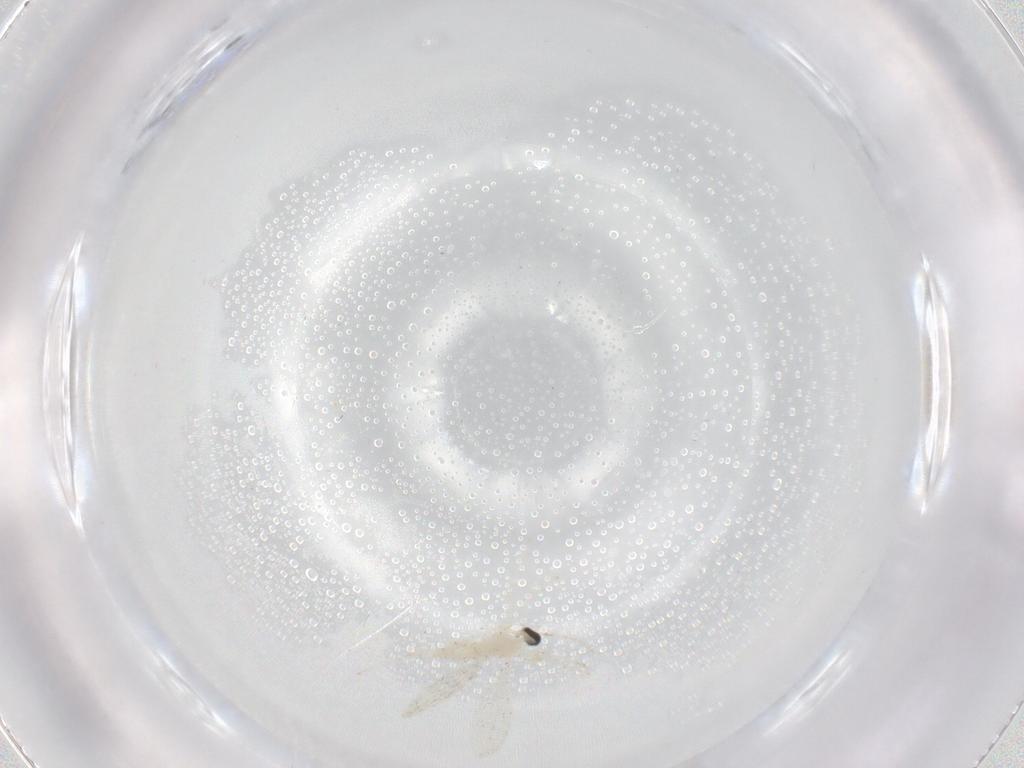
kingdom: Animalia
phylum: Arthropoda
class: Insecta
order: Diptera
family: Cecidomyiidae
